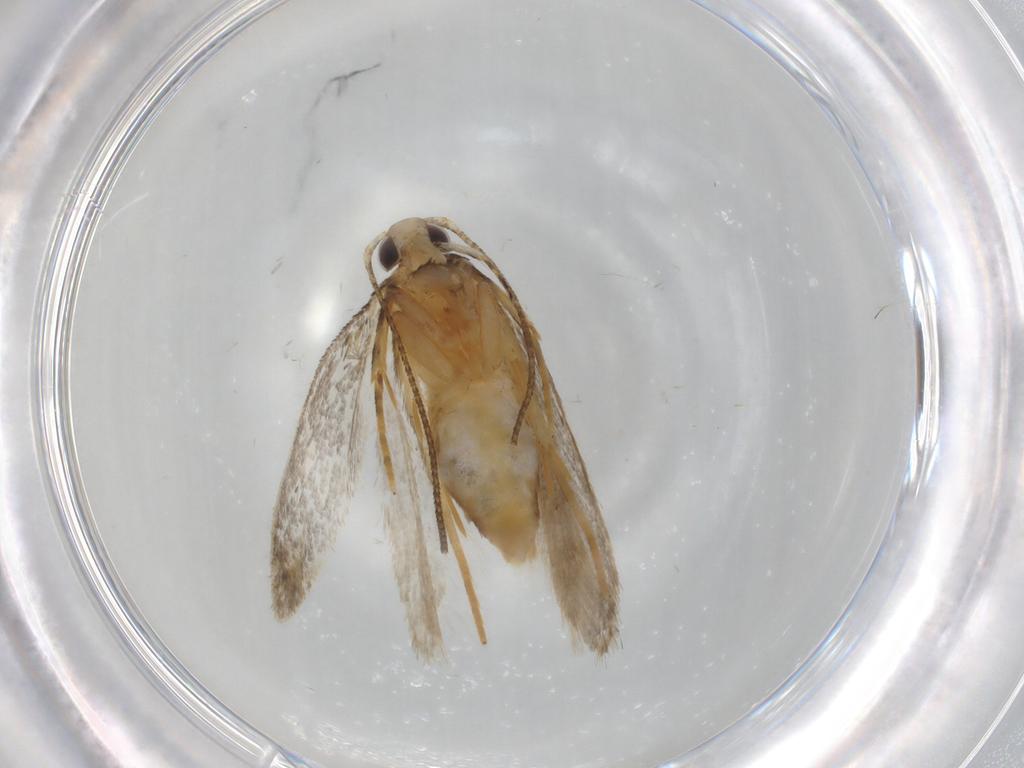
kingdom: Animalia
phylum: Arthropoda
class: Insecta
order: Lepidoptera
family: Autostichidae
